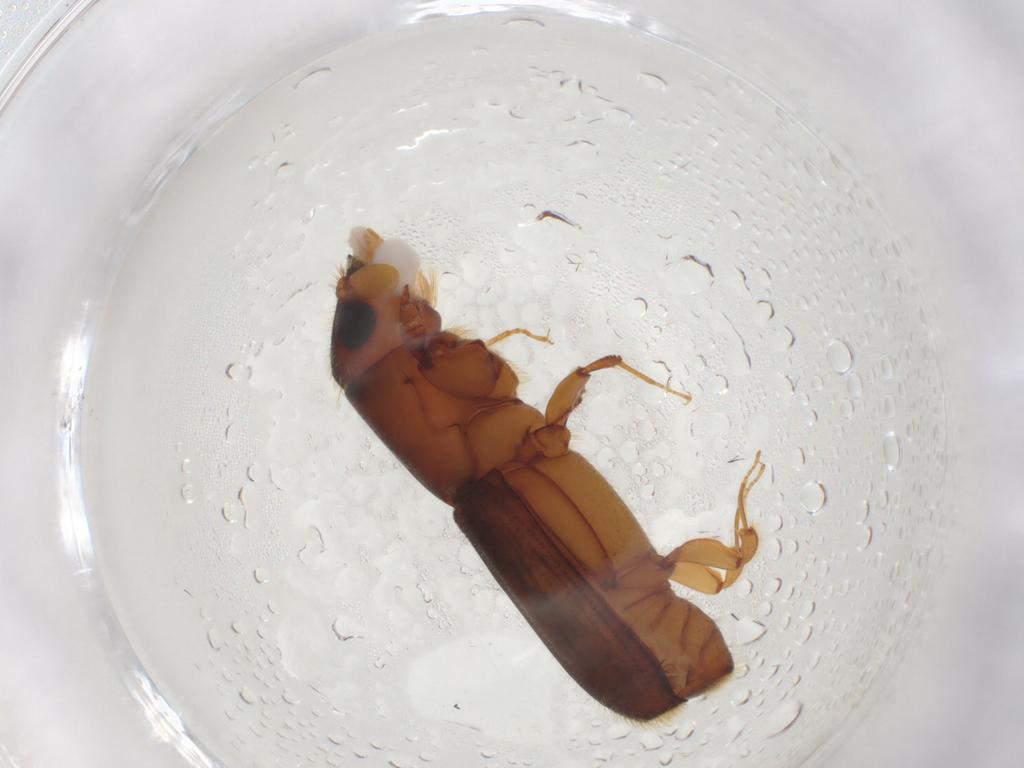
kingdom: Animalia
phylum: Arthropoda
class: Insecta
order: Coleoptera
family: Curculionidae
